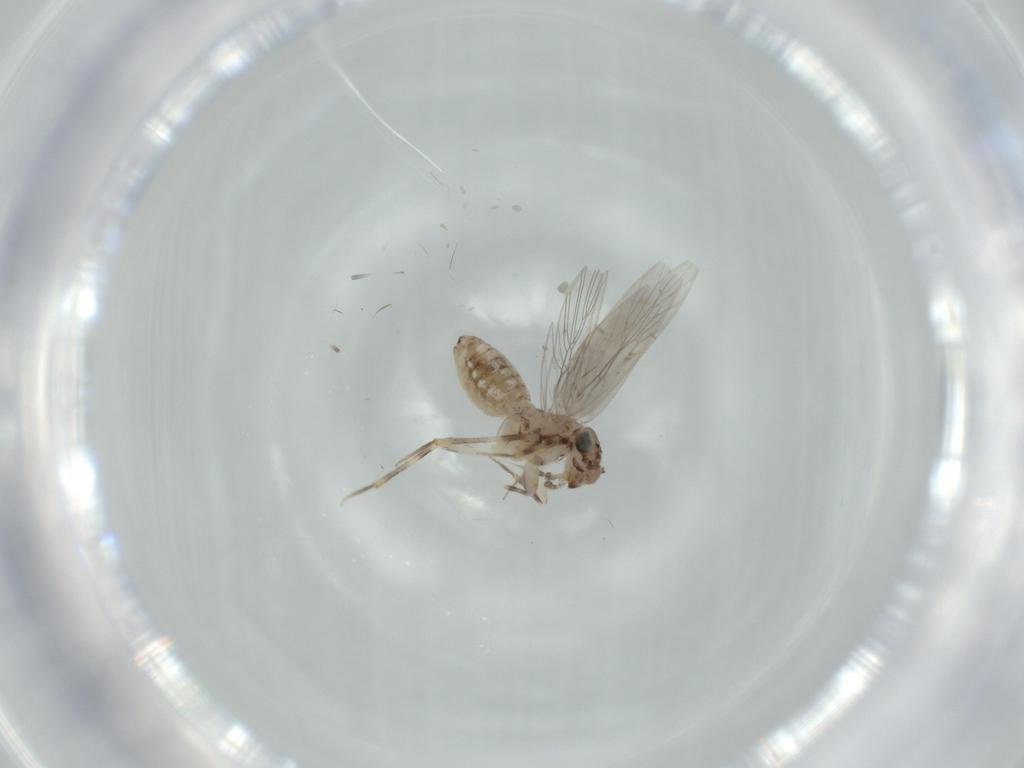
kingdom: Animalia
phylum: Arthropoda
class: Insecta
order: Psocodea
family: Lepidopsocidae
